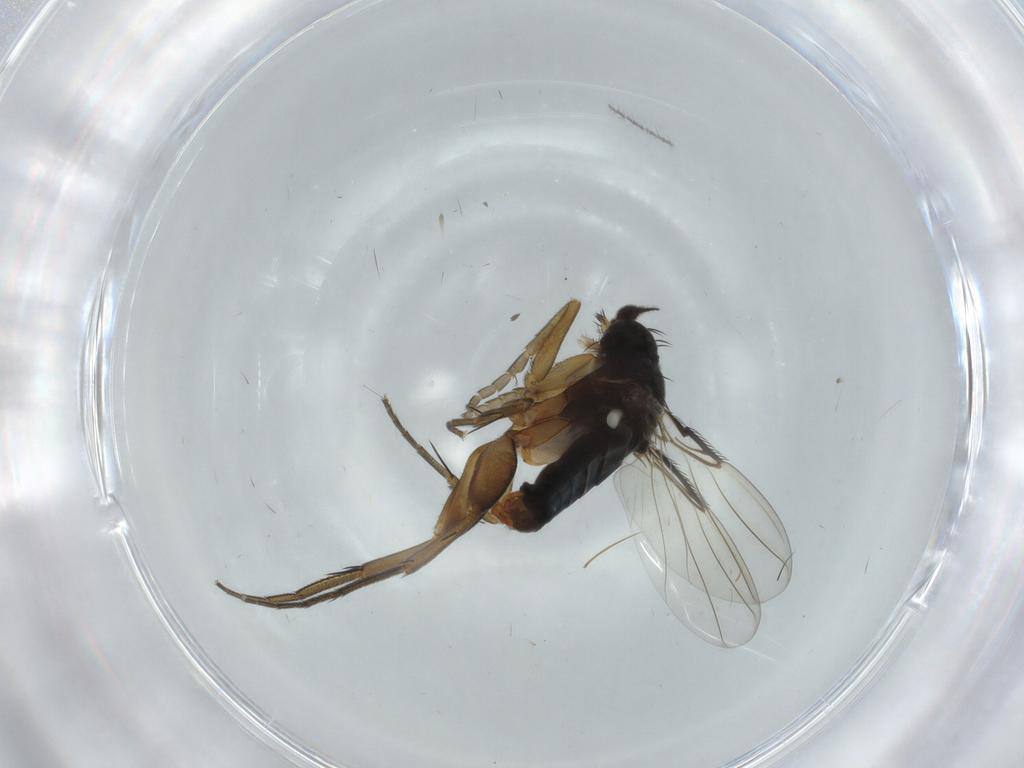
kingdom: Animalia
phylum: Arthropoda
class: Insecta
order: Diptera
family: Phoridae
